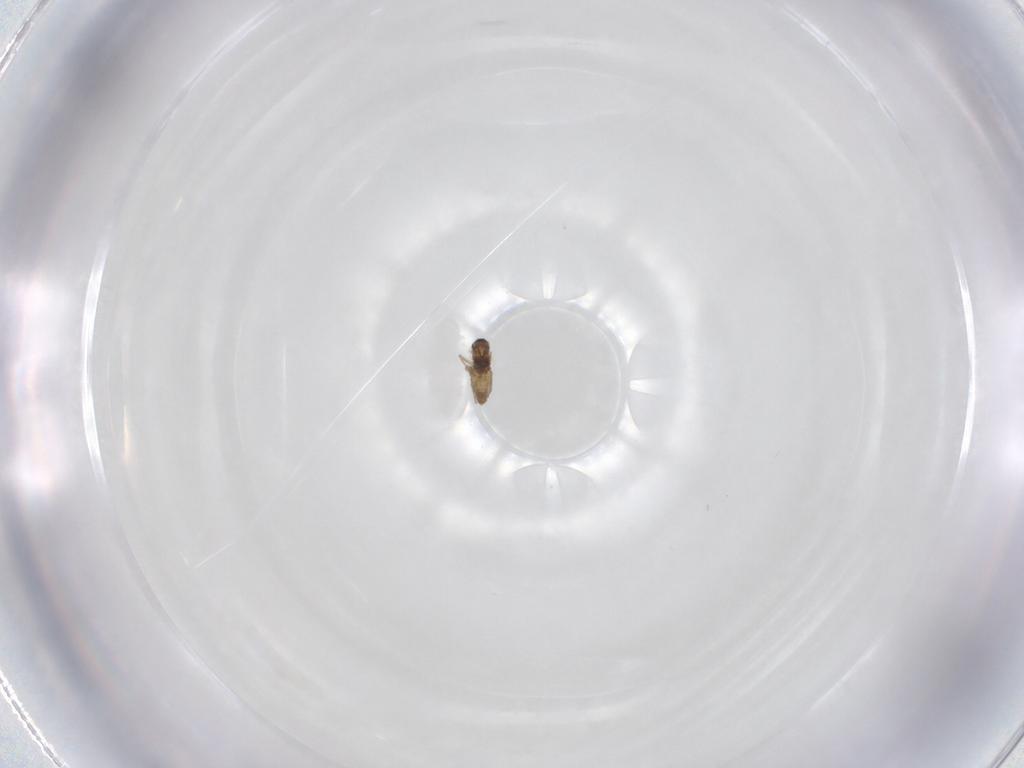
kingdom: Animalia
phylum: Arthropoda
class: Insecta
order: Diptera
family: Cecidomyiidae
